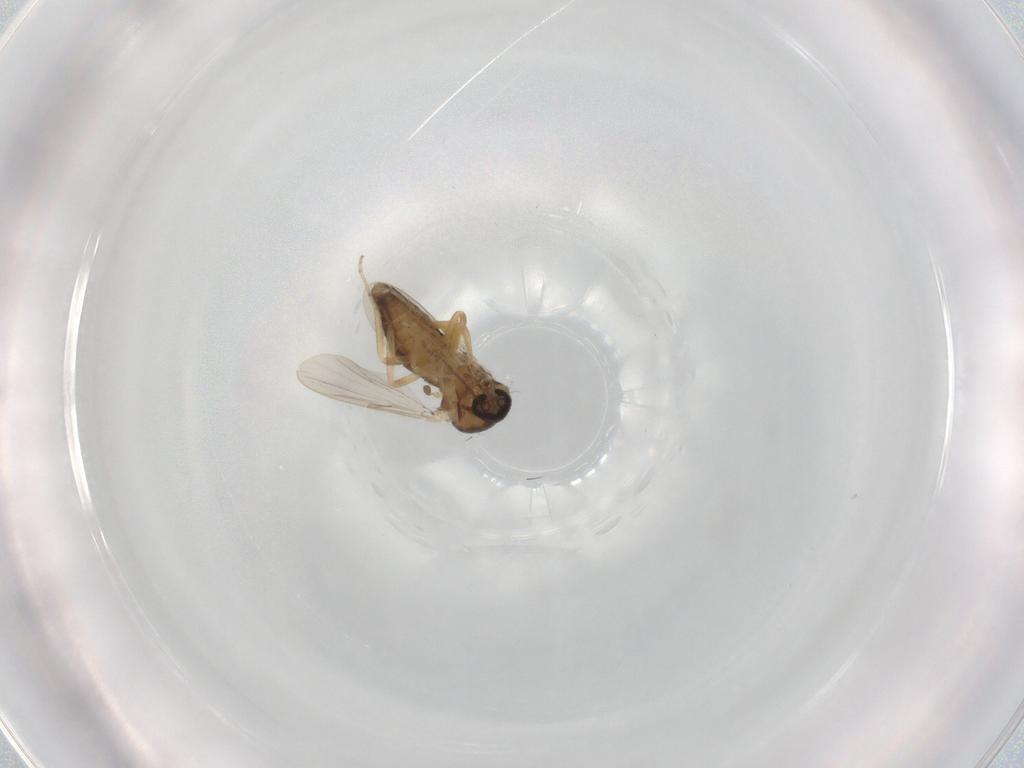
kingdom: Animalia
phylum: Arthropoda
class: Insecta
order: Diptera
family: Ceratopogonidae
